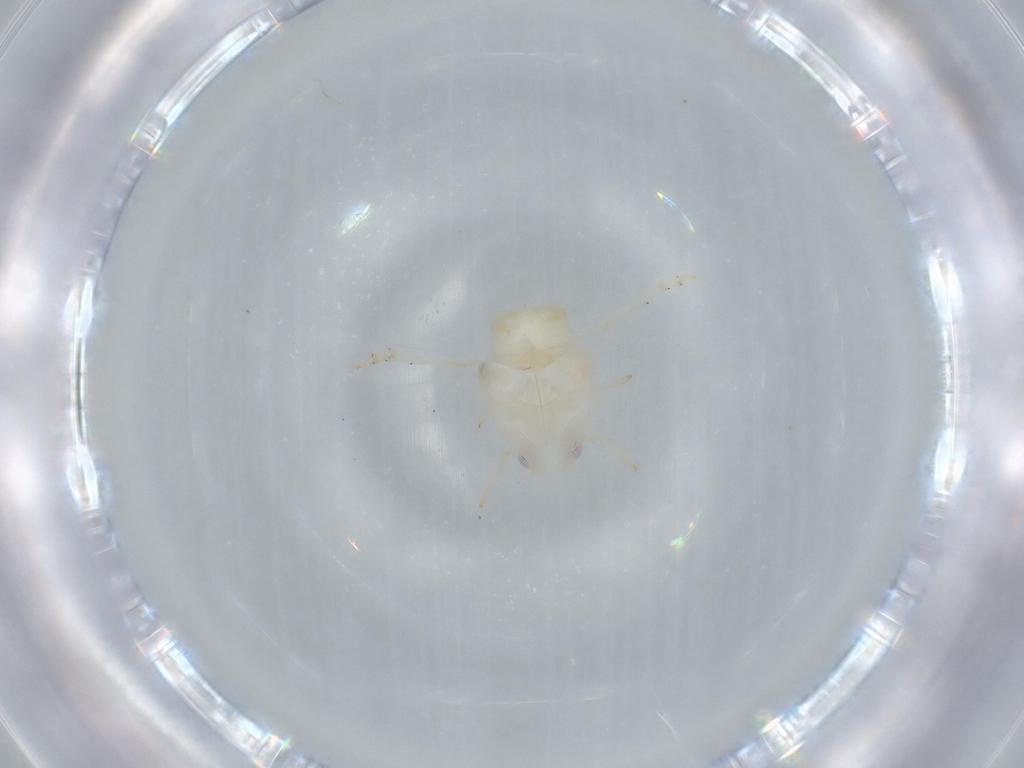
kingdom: Animalia
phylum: Arthropoda
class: Insecta
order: Hemiptera
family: Flatidae
